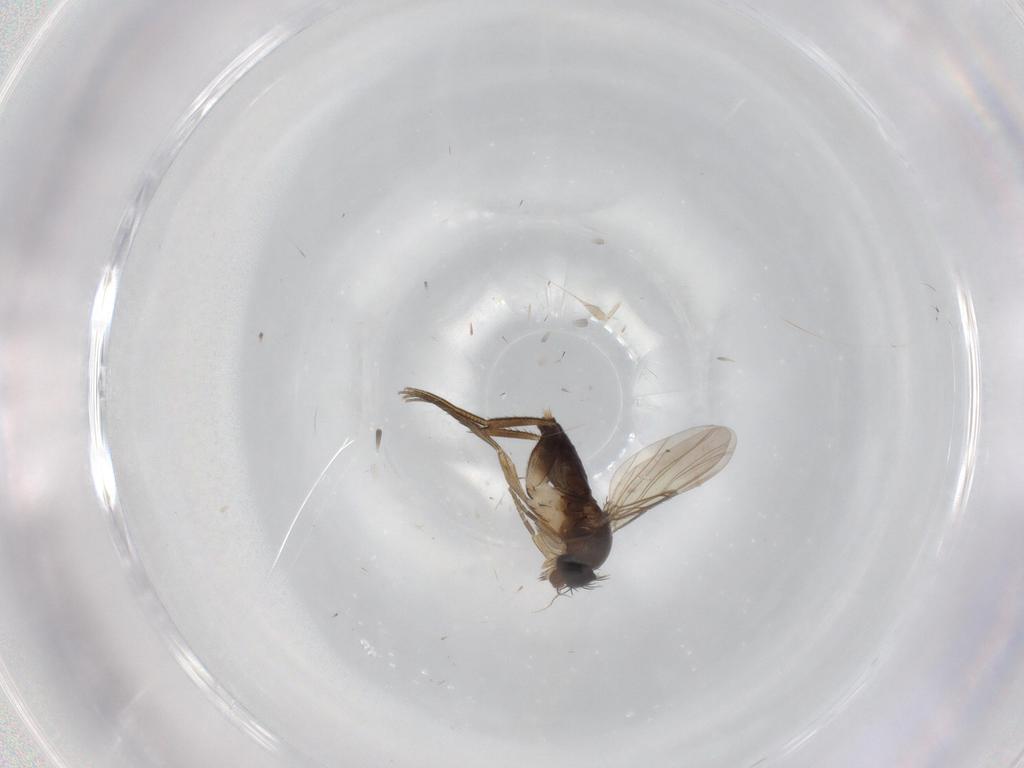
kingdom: Animalia
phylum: Arthropoda
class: Insecta
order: Diptera
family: Phoridae
